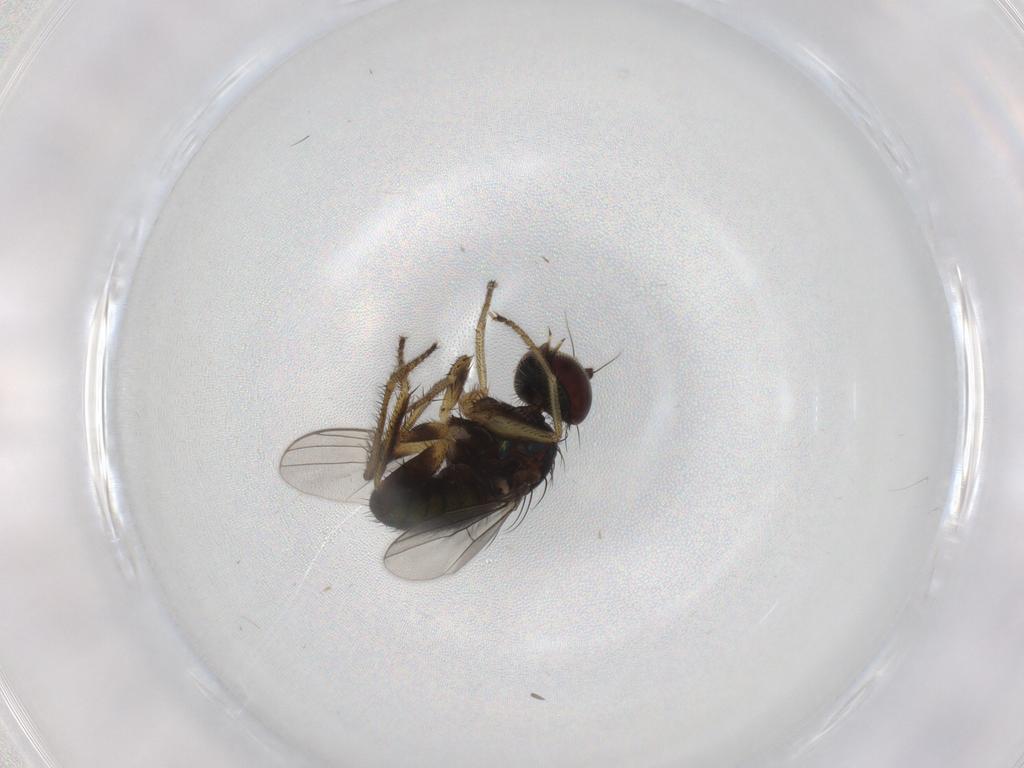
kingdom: Animalia
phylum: Arthropoda
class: Insecta
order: Diptera
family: Dolichopodidae
